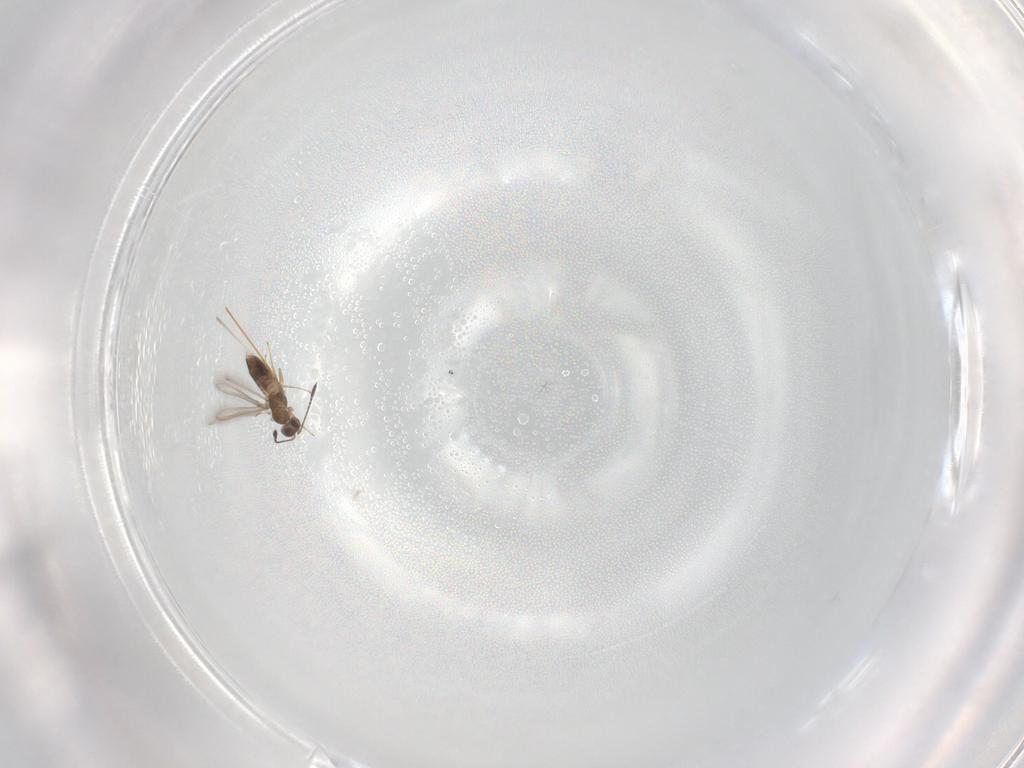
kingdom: Animalia
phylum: Arthropoda
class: Insecta
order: Hymenoptera
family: Mymaridae
